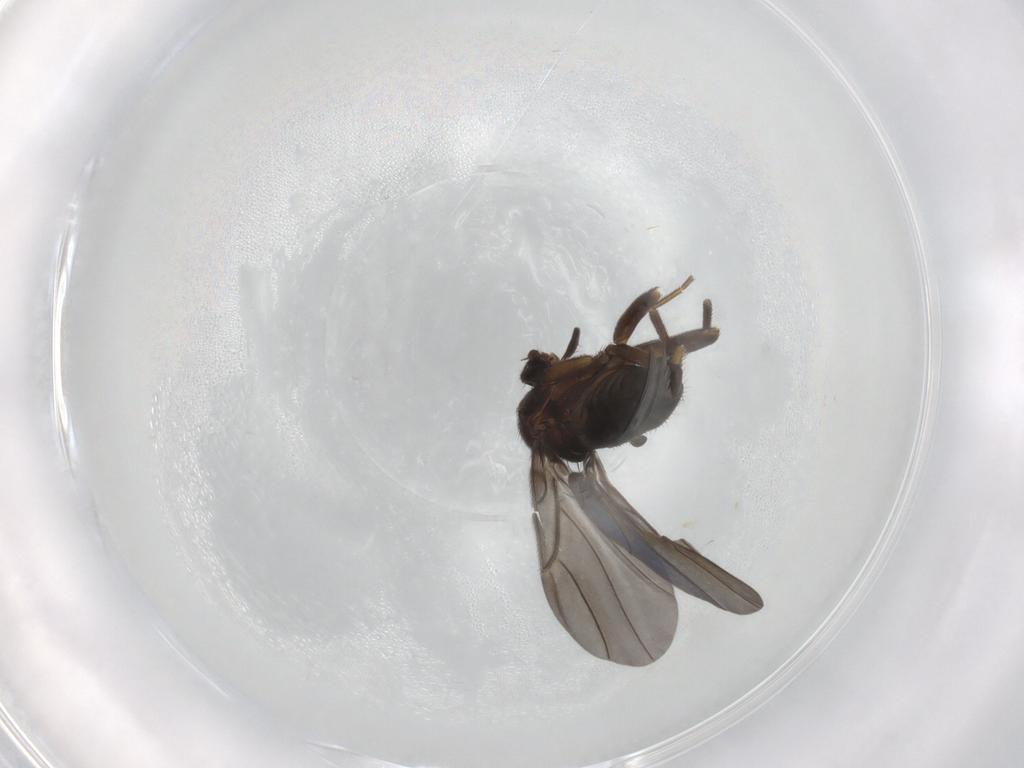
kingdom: Animalia
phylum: Arthropoda
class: Insecta
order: Diptera
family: Phoridae
